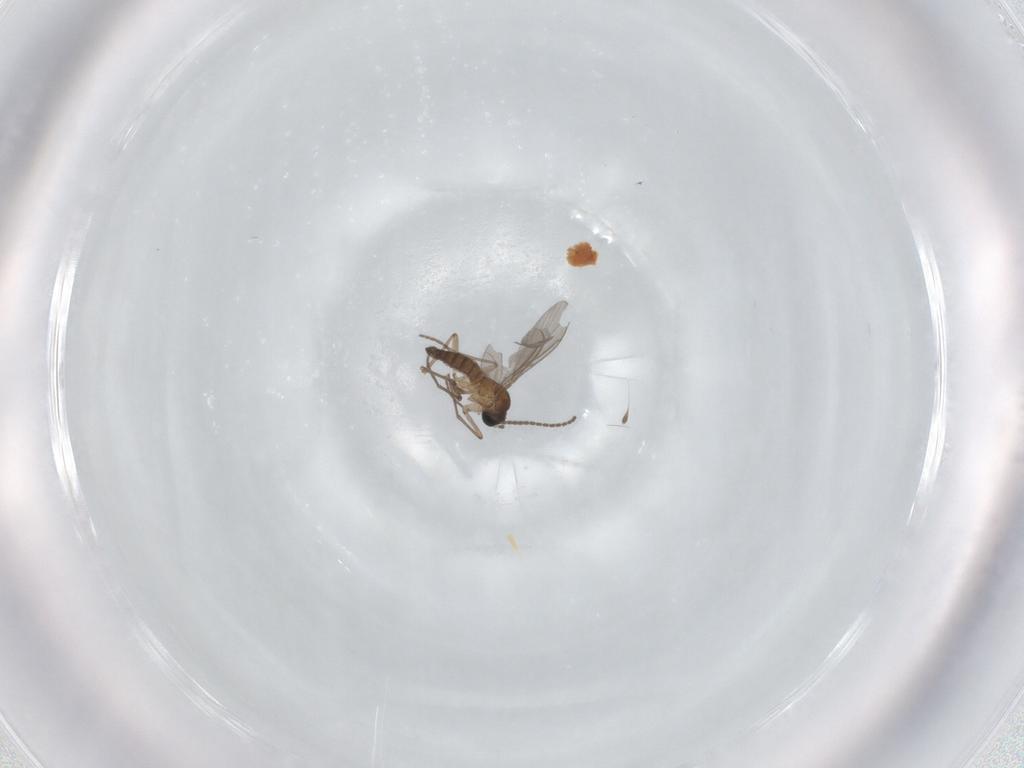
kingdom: Animalia
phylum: Arthropoda
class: Insecta
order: Diptera
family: Sciaridae
